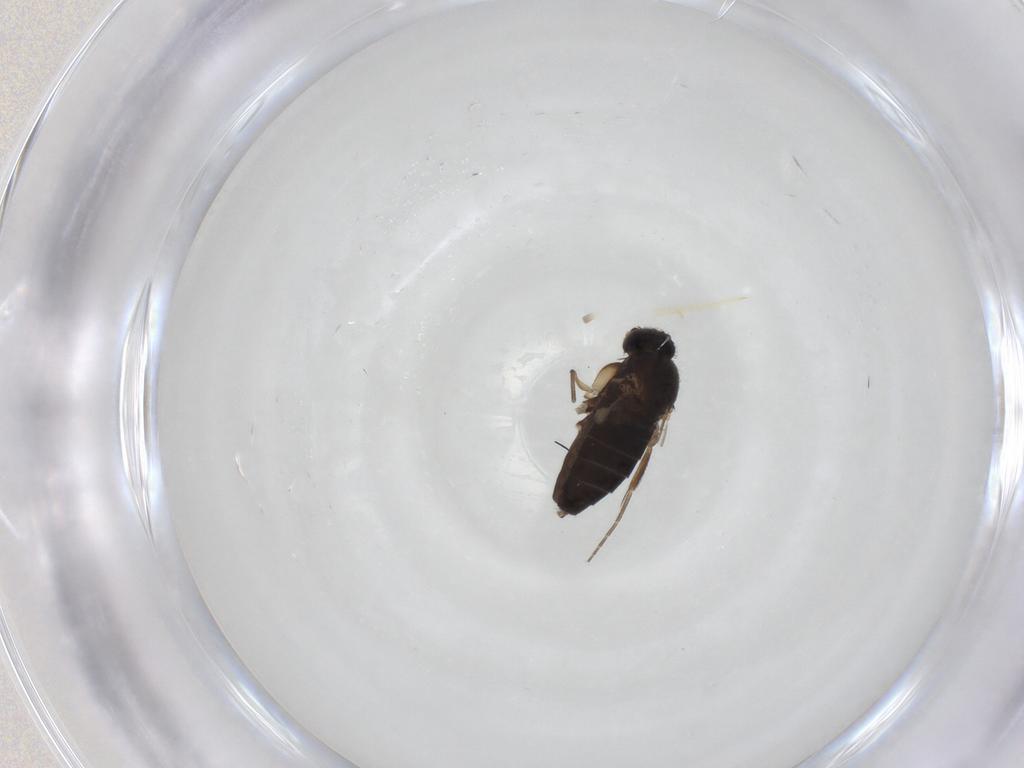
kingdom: Animalia
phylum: Arthropoda
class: Insecta
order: Diptera
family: Phoridae
